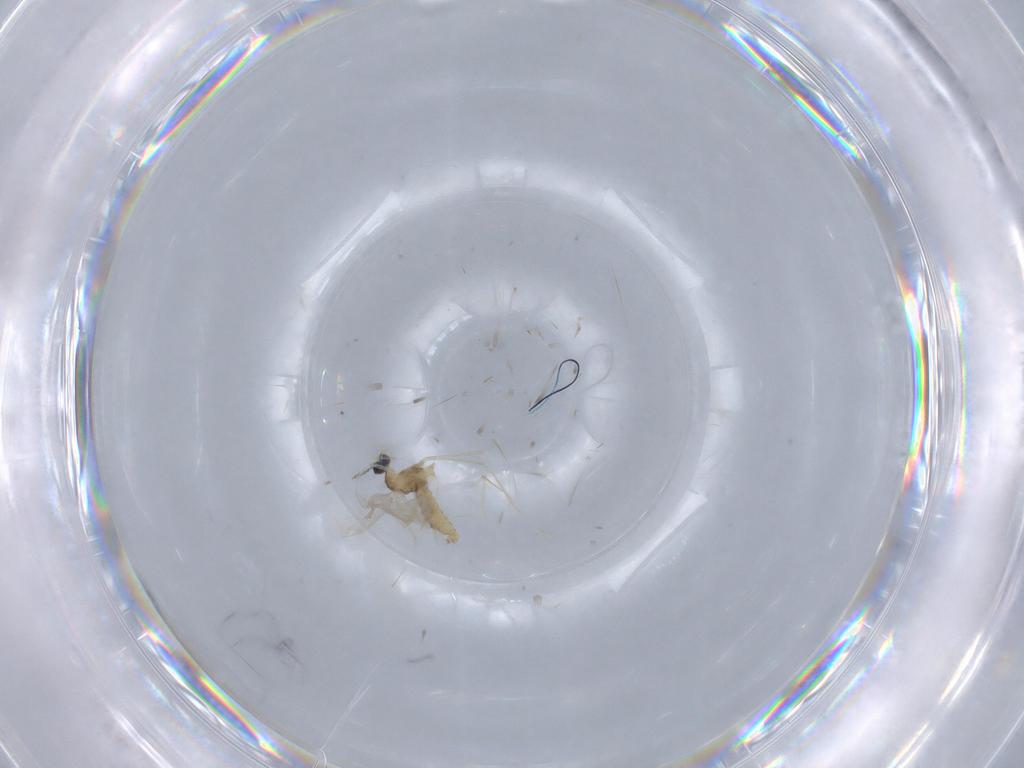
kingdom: Animalia
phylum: Arthropoda
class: Insecta
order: Diptera
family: Cecidomyiidae
